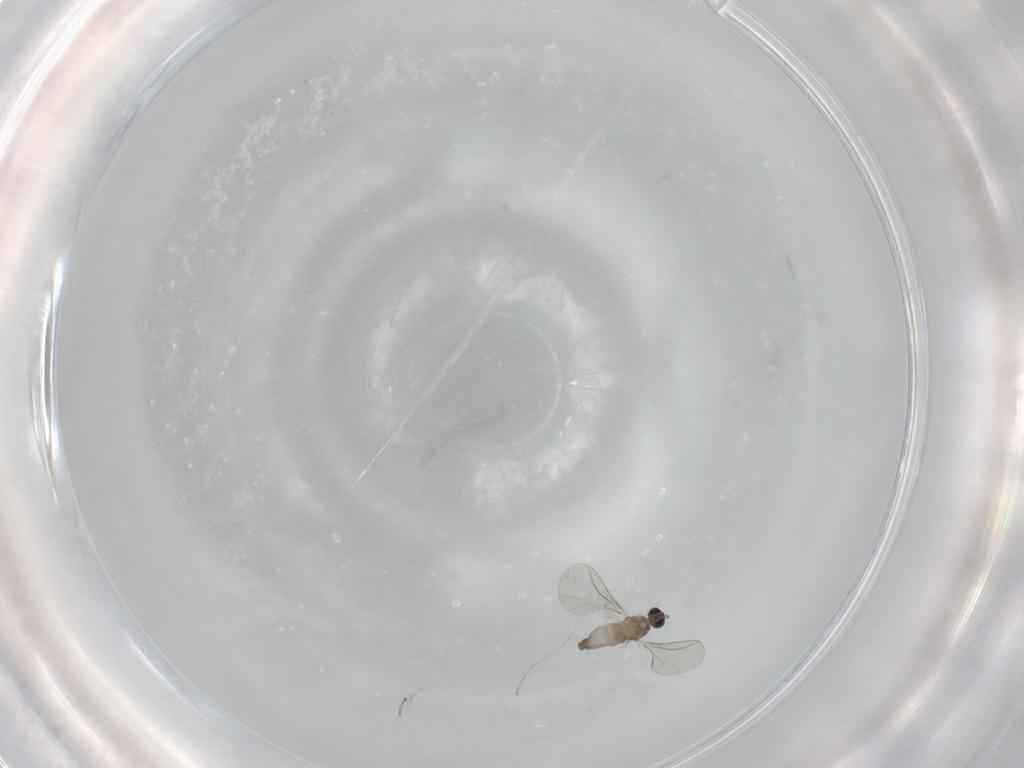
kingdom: Animalia
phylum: Arthropoda
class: Insecta
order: Diptera
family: Cecidomyiidae
